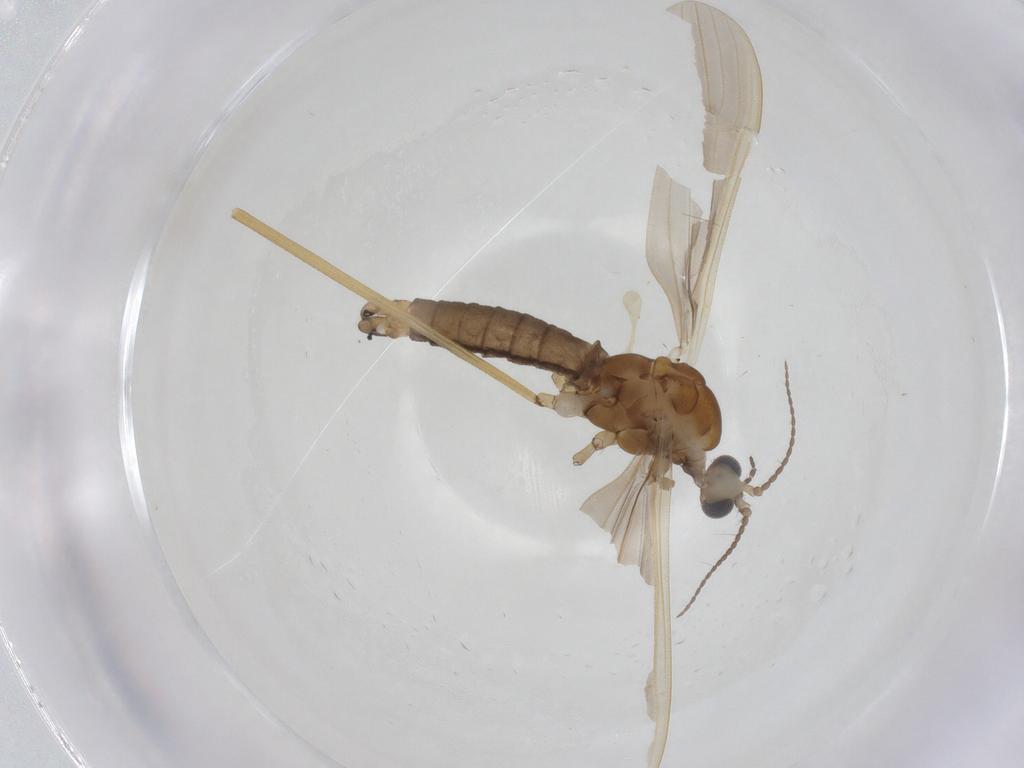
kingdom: Animalia
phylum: Arthropoda
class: Insecta
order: Diptera
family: Limoniidae
